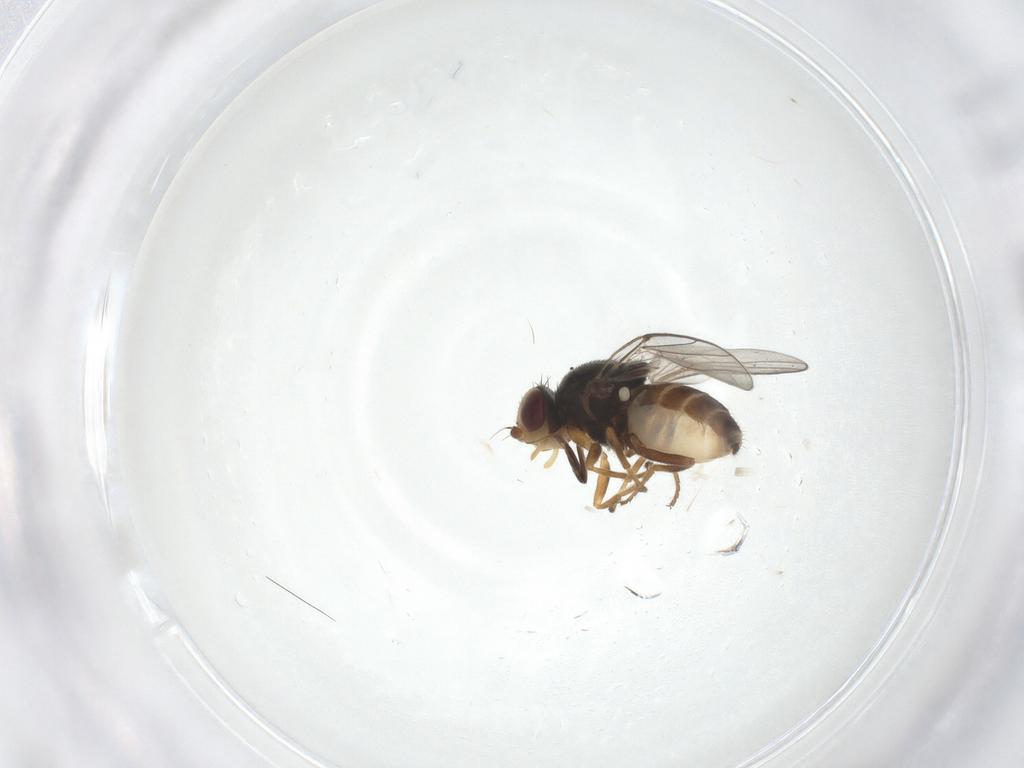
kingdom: Animalia
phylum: Arthropoda
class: Insecta
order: Diptera
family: Chloropidae
